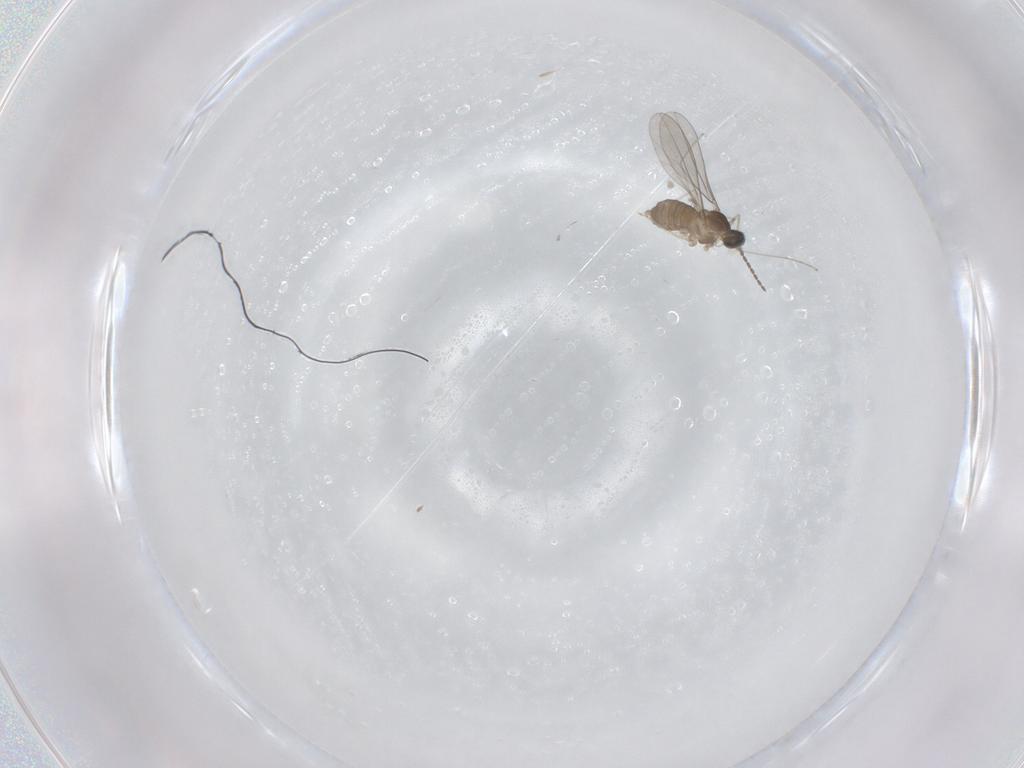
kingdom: Animalia
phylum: Arthropoda
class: Insecta
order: Diptera
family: Cecidomyiidae
